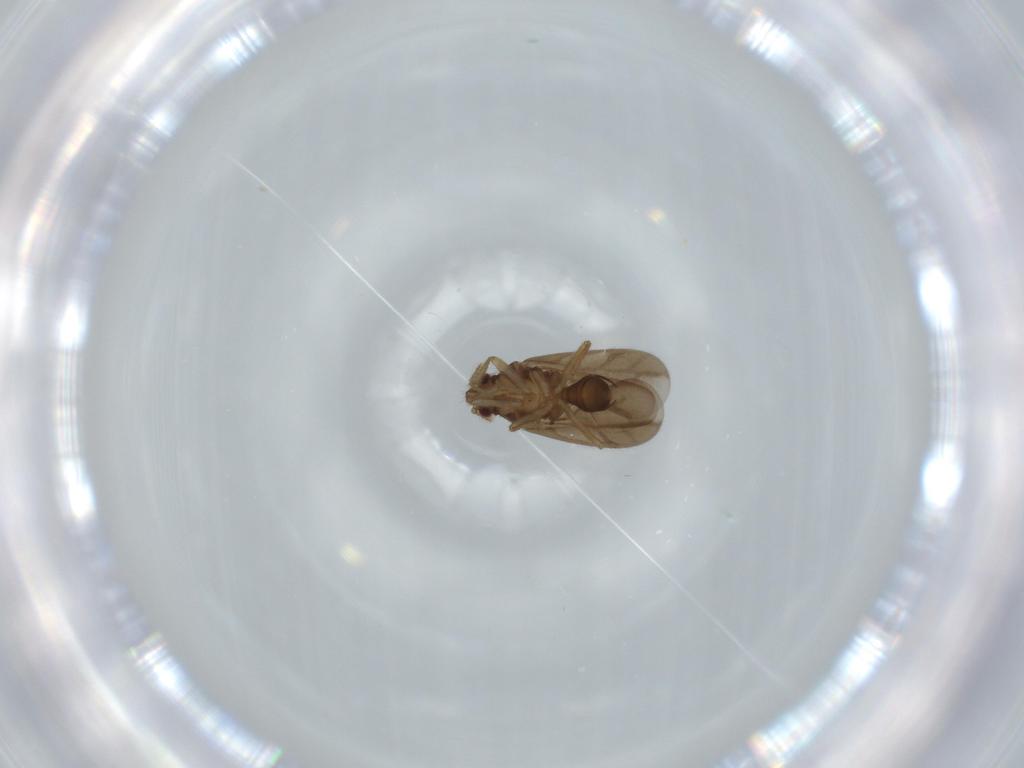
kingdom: Animalia
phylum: Arthropoda
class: Insecta
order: Hemiptera
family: Ceratocombidae
